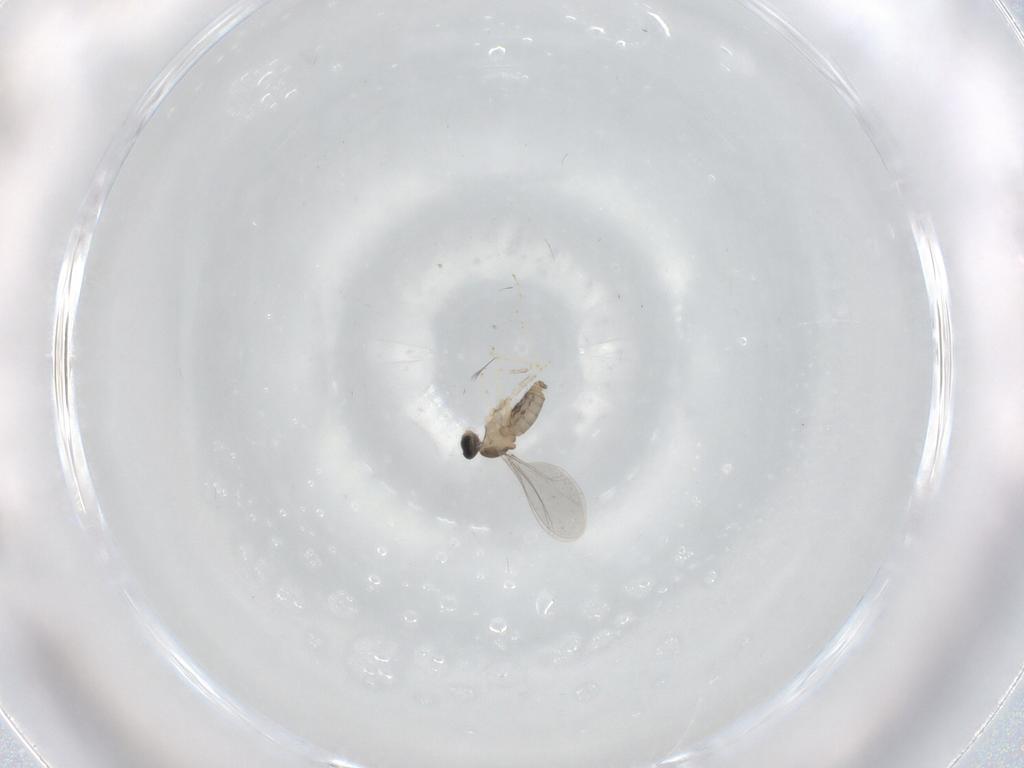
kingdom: Animalia
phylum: Arthropoda
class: Insecta
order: Diptera
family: Cecidomyiidae
